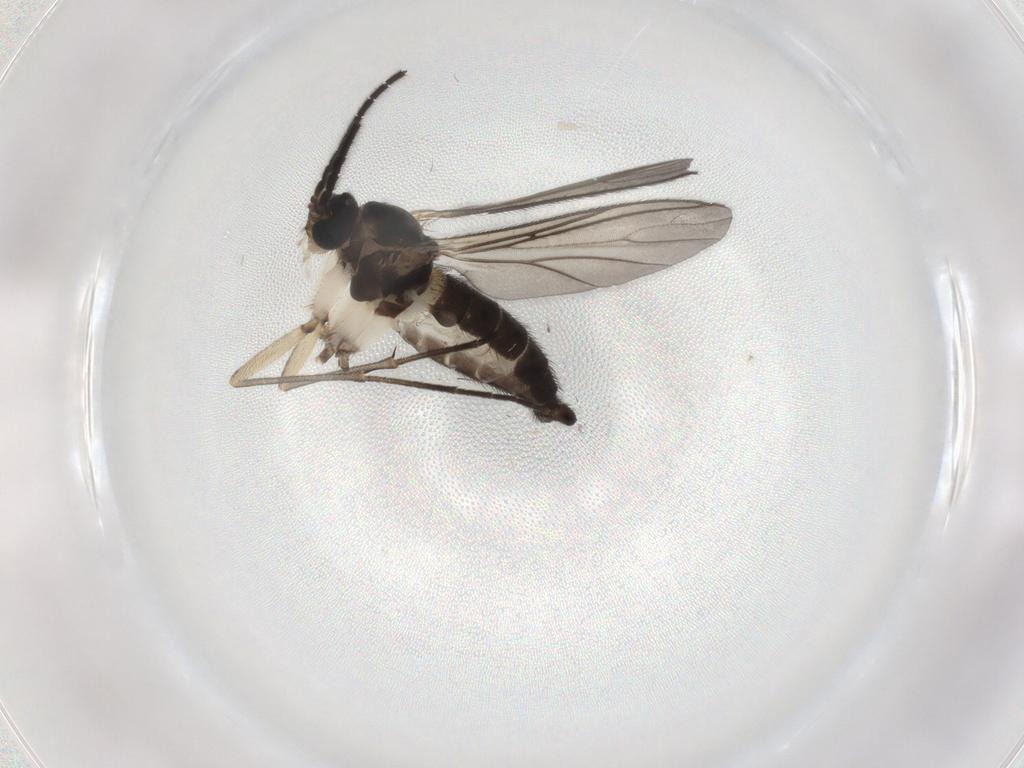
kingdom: Animalia
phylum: Arthropoda
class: Insecta
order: Diptera
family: Sciaridae
